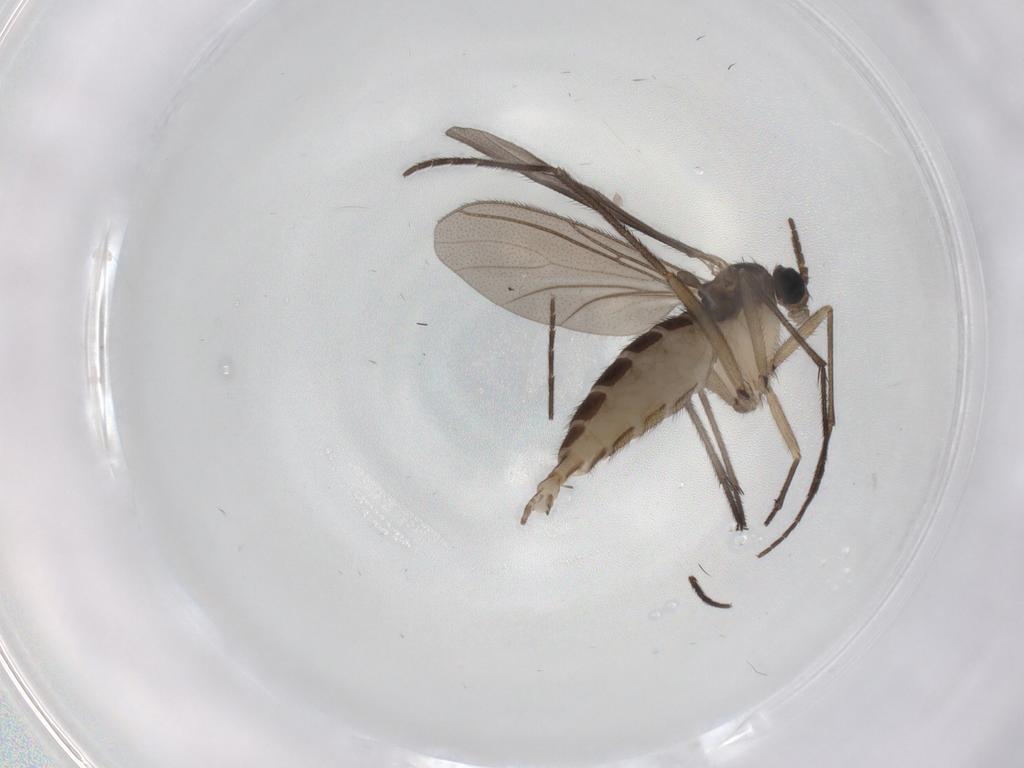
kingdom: Animalia
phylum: Arthropoda
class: Insecta
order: Diptera
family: Sciaridae
